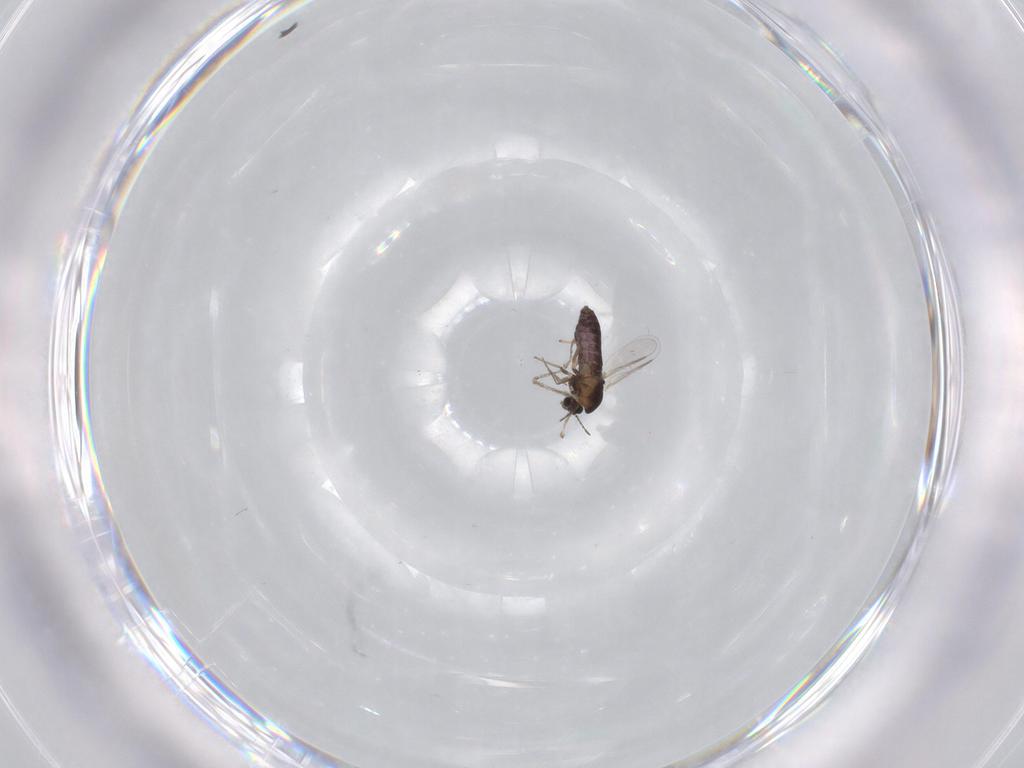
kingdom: Animalia
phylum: Arthropoda
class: Insecta
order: Diptera
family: Chironomidae
